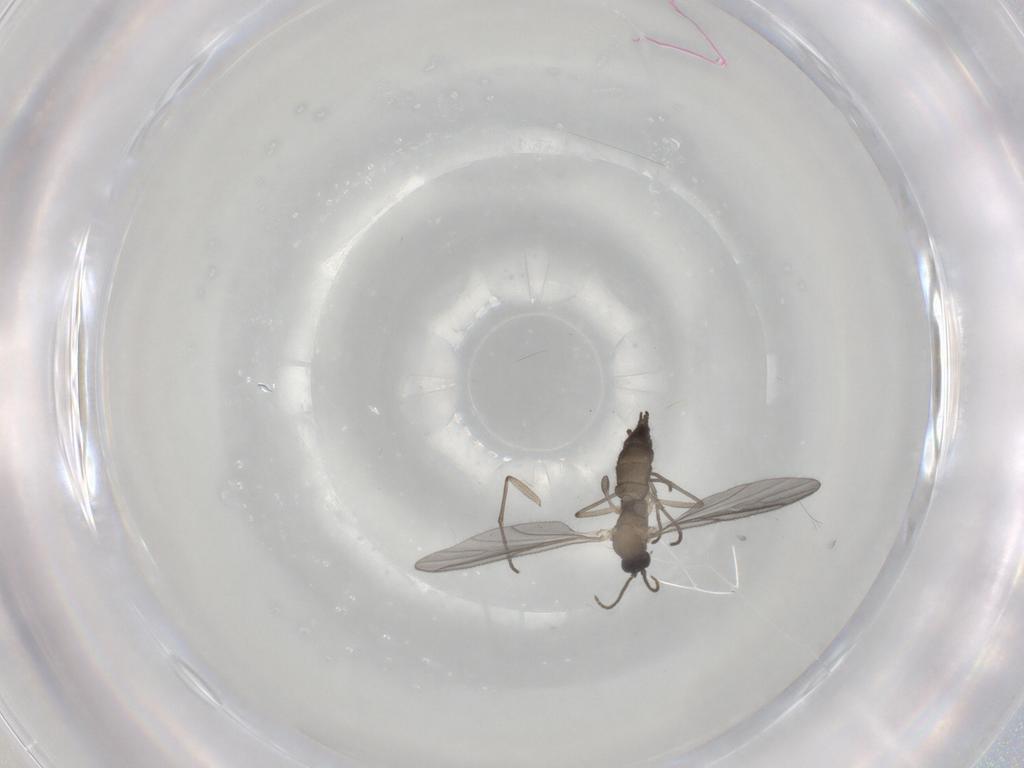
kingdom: Animalia
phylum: Arthropoda
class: Insecta
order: Diptera
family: Sciaridae
